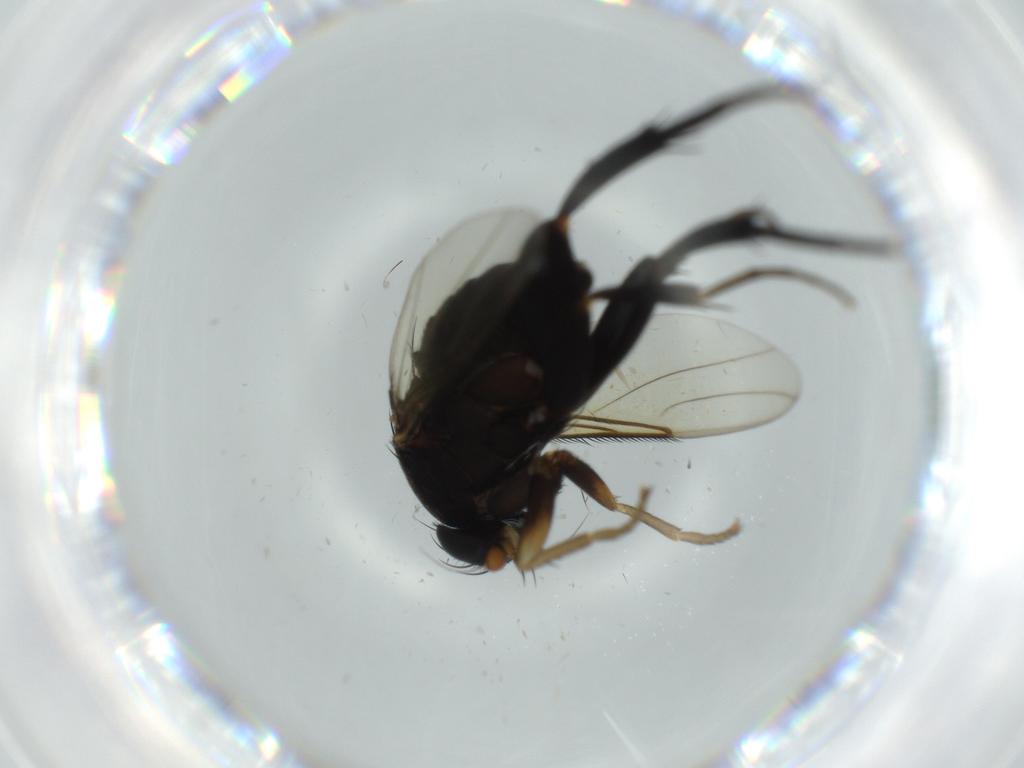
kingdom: Animalia
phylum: Arthropoda
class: Insecta
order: Diptera
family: Phoridae
